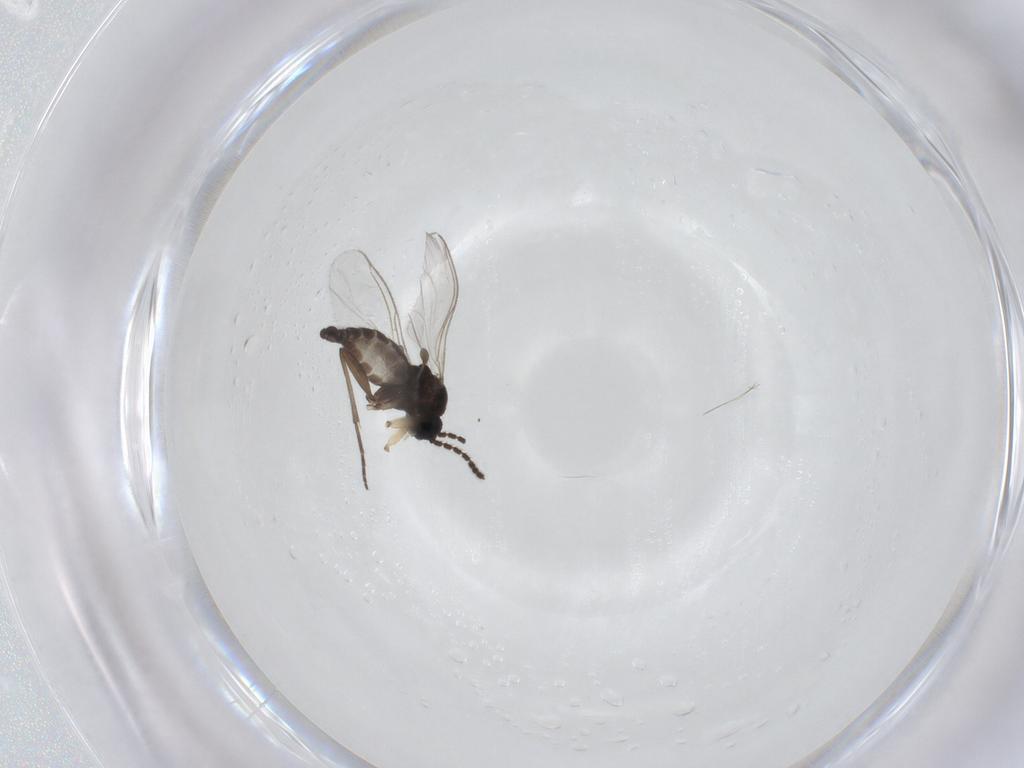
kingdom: Animalia
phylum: Arthropoda
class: Insecta
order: Diptera
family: Sciaridae
